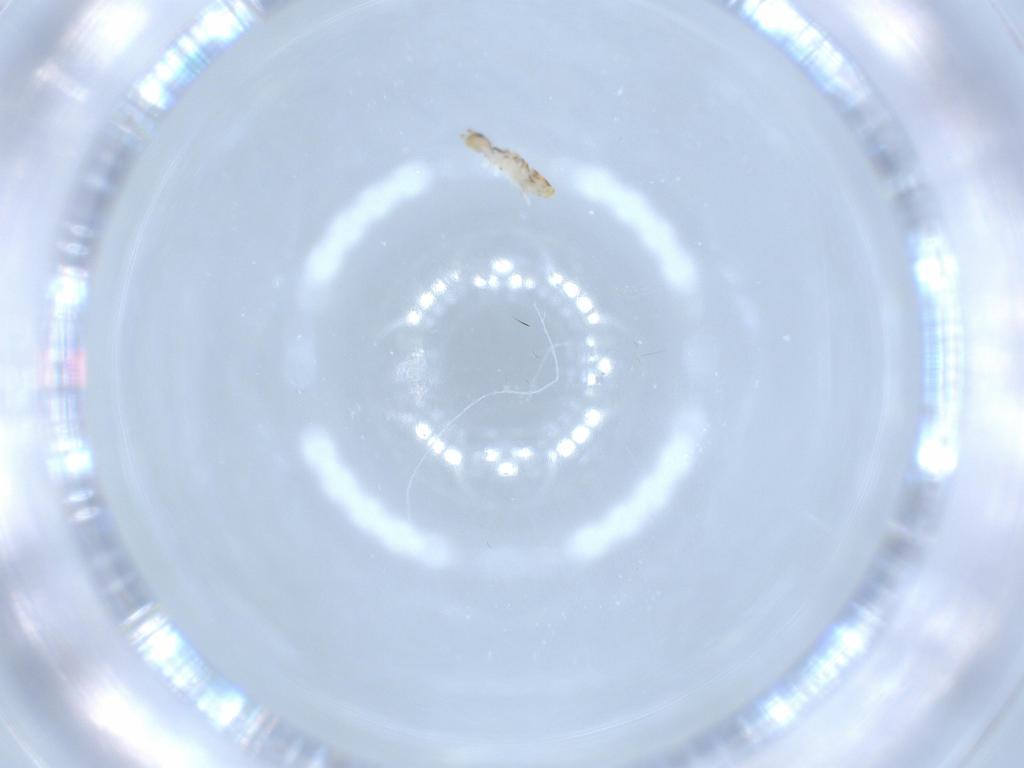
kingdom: Animalia
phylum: Arthropoda
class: Collembola
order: Entomobryomorpha
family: Entomobryidae
